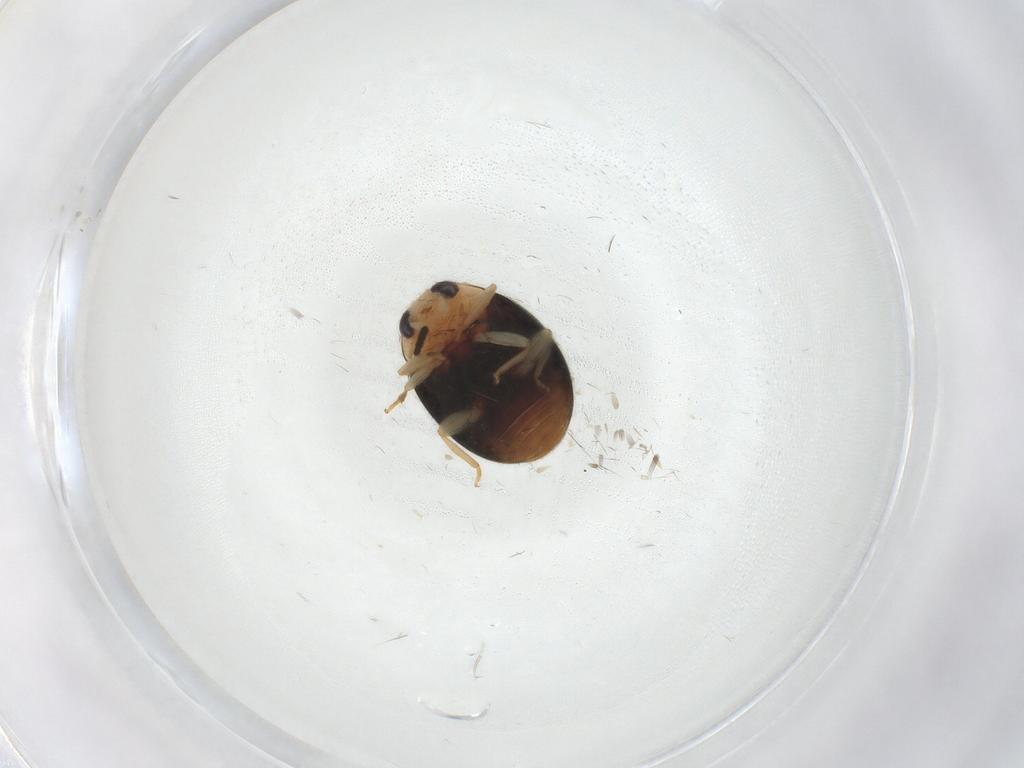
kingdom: Animalia
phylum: Arthropoda
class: Insecta
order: Coleoptera
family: Coccinellidae
